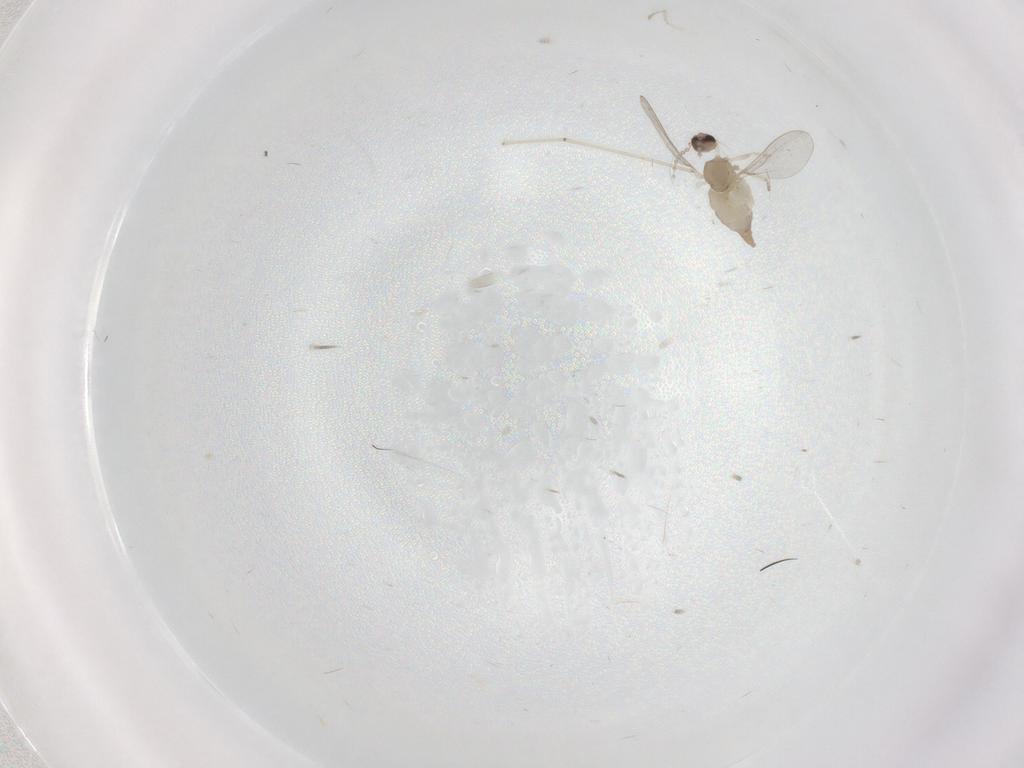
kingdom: Animalia
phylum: Arthropoda
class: Insecta
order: Diptera
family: Cecidomyiidae
